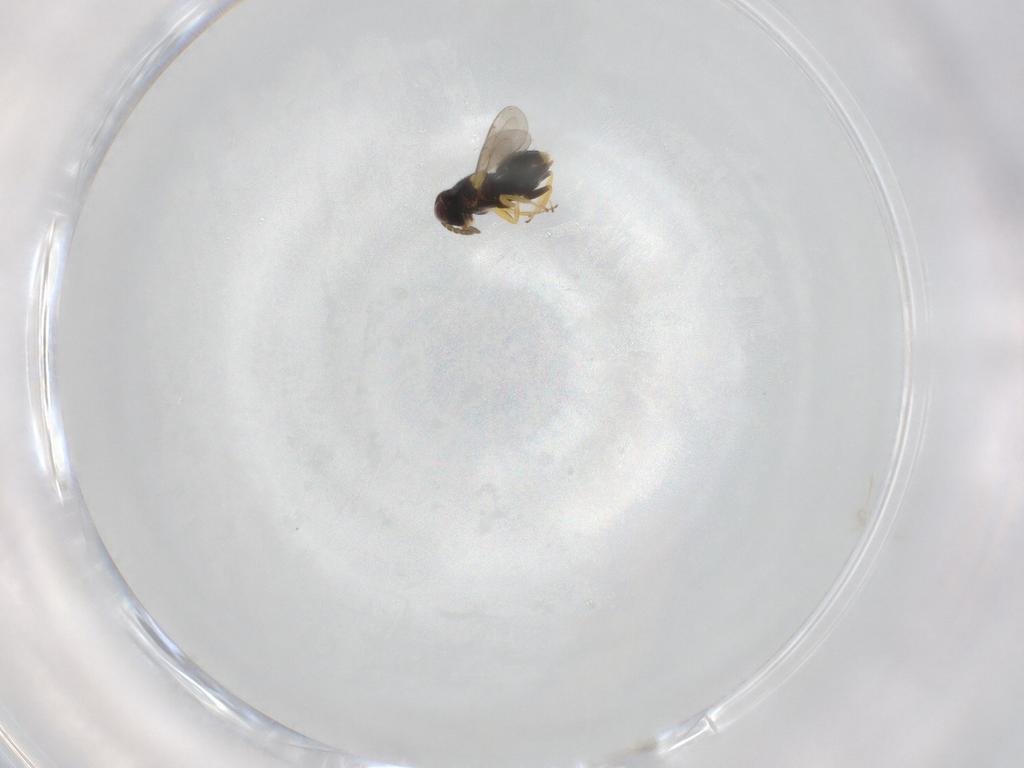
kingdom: Animalia
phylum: Arthropoda
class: Insecta
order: Hymenoptera
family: Aphelinidae
